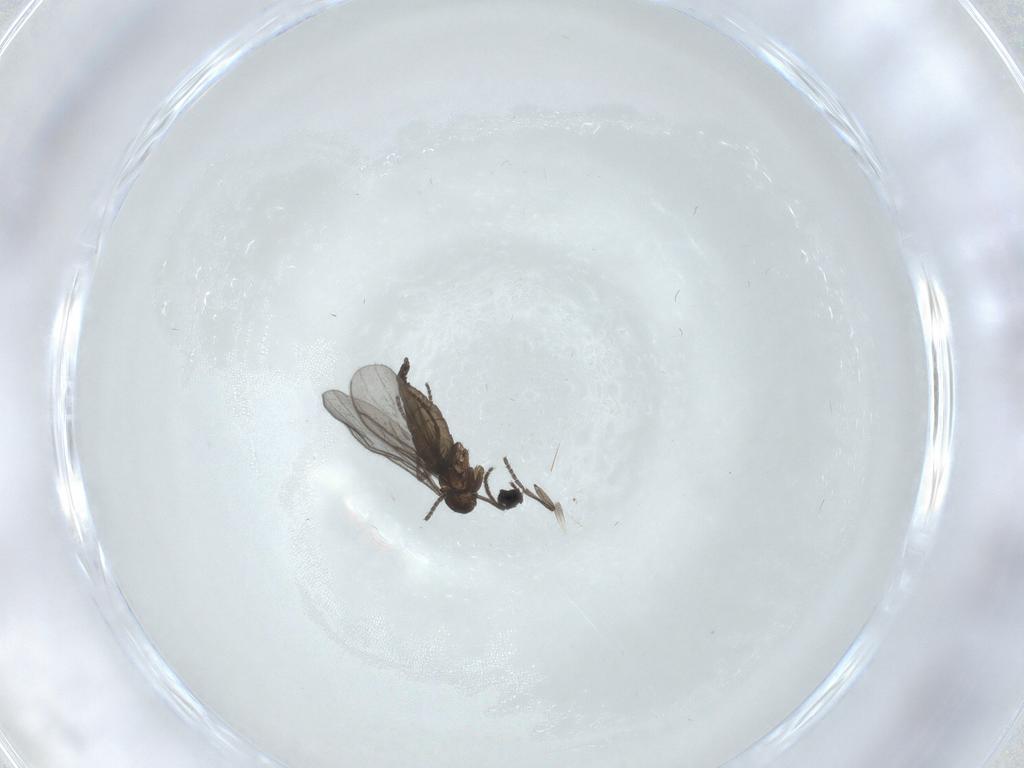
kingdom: Animalia
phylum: Arthropoda
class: Insecta
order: Diptera
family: Sciaridae
